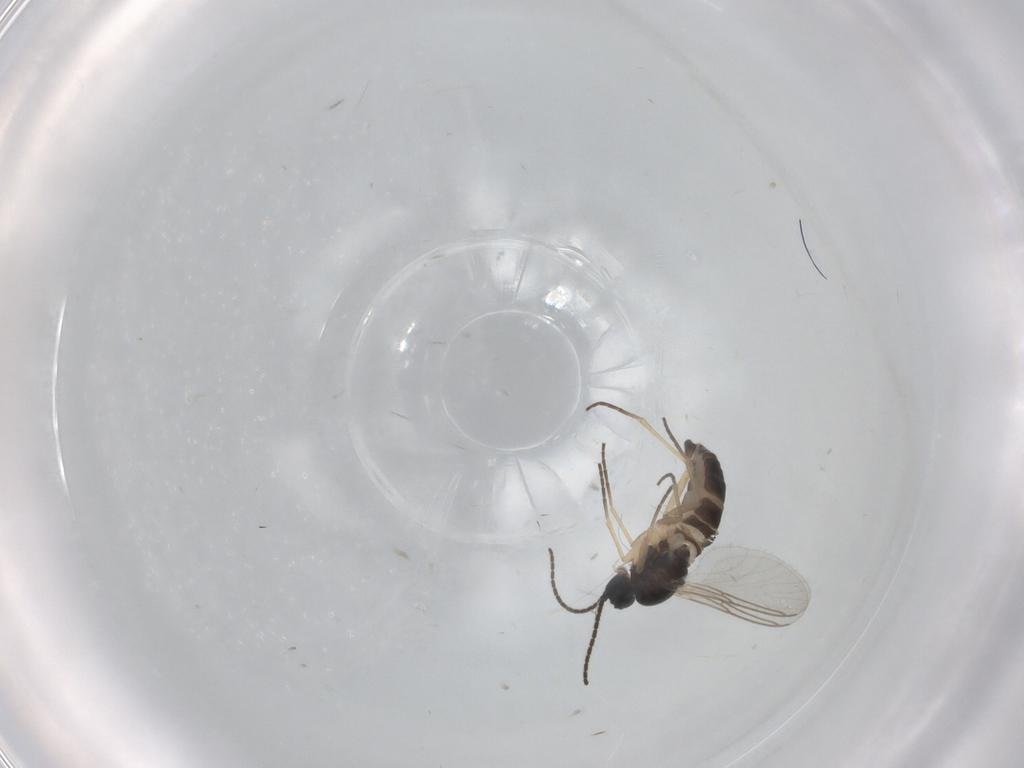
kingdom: Animalia
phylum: Arthropoda
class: Insecta
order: Diptera
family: Sciaridae
